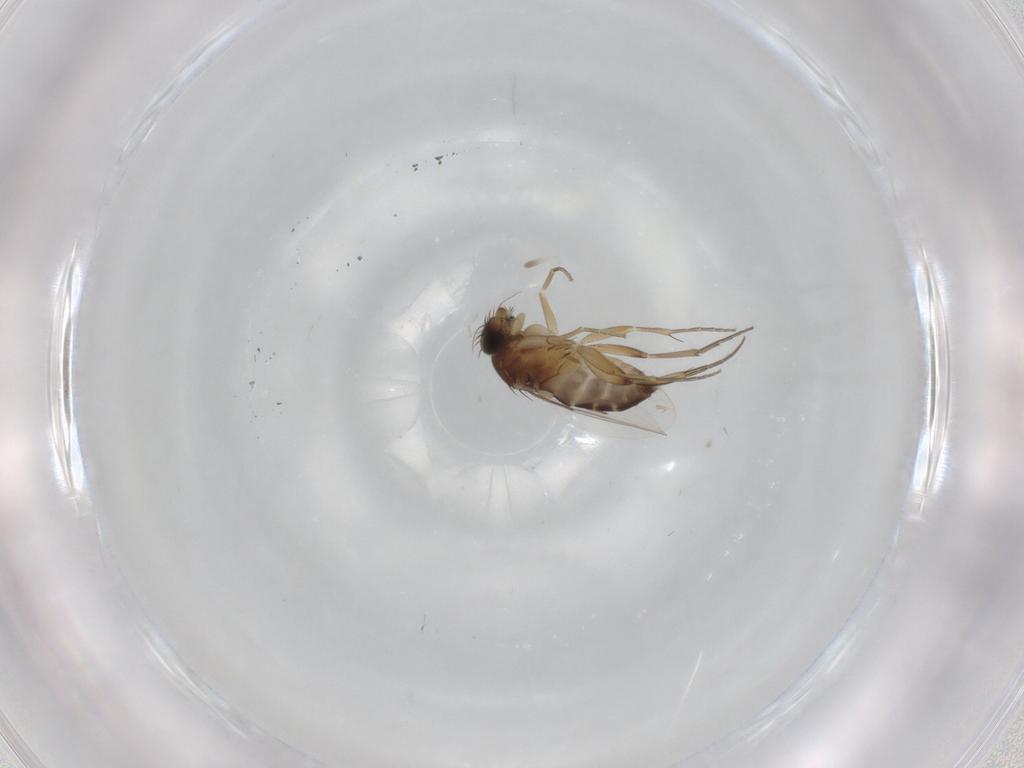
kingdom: Animalia
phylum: Arthropoda
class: Insecta
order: Diptera
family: Phoridae
